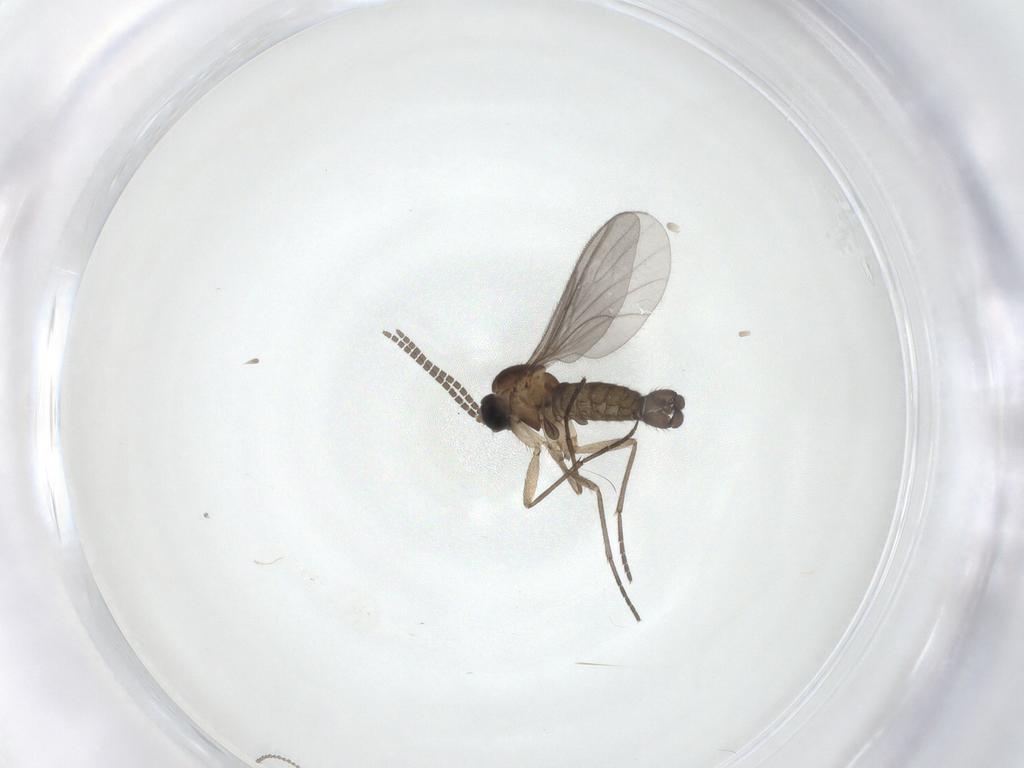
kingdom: Animalia
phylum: Arthropoda
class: Insecta
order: Diptera
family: Sciaridae
